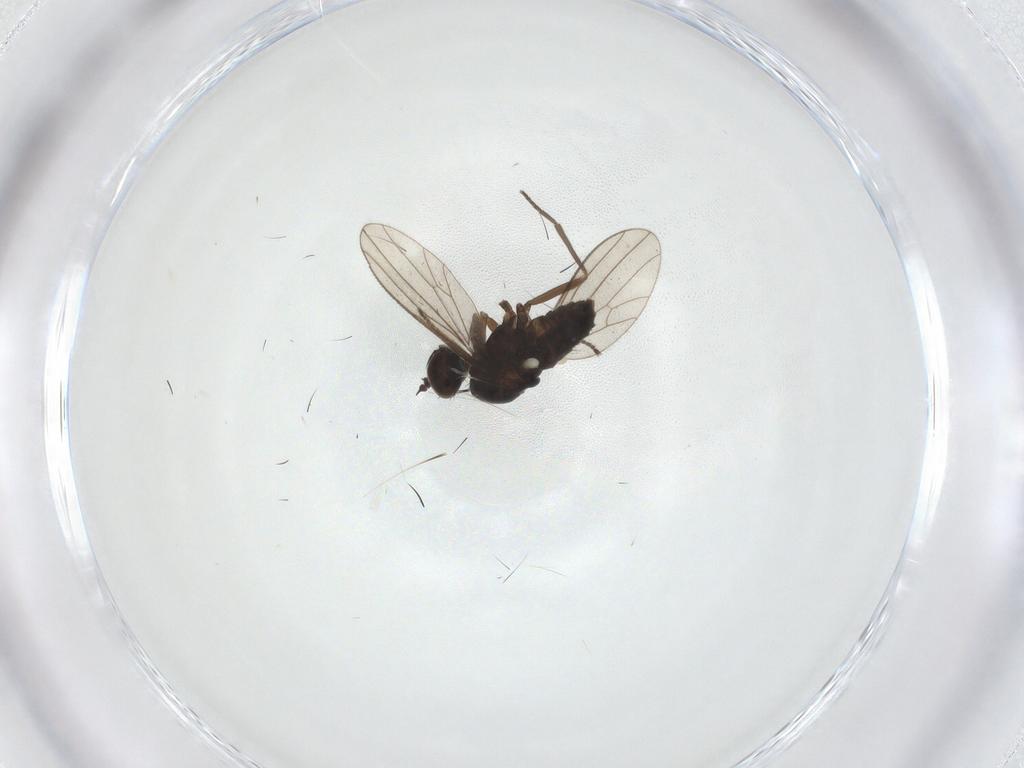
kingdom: Animalia
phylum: Arthropoda
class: Insecta
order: Diptera
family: Dolichopodidae
